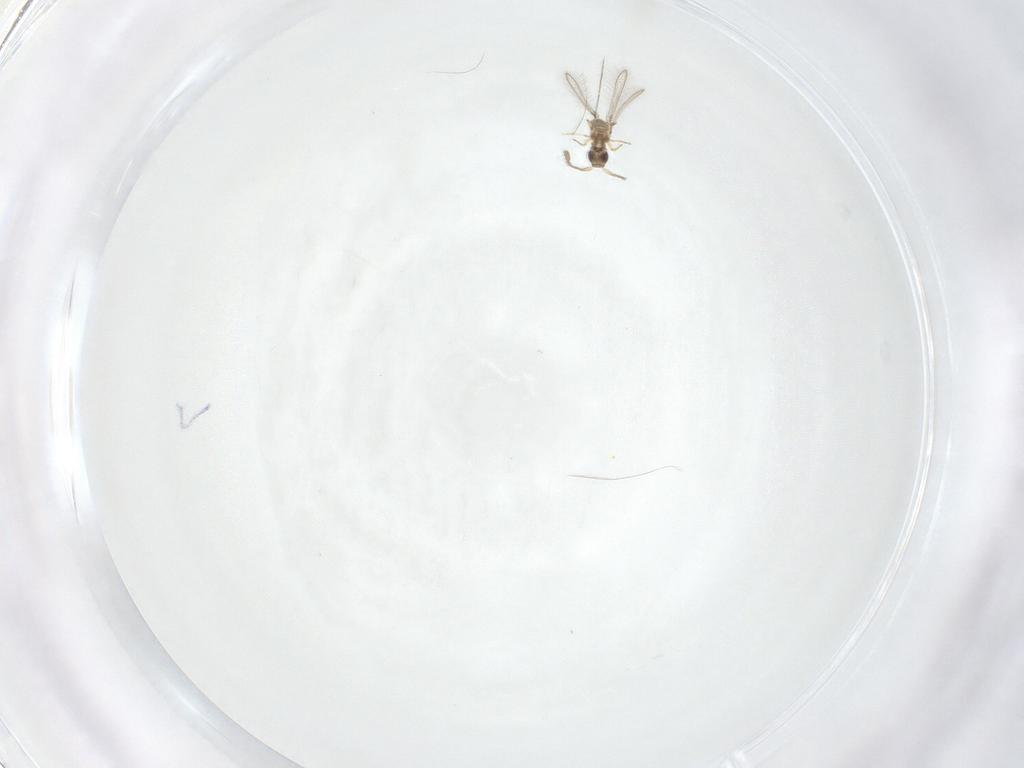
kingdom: Animalia
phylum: Arthropoda
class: Insecta
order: Hymenoptera
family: Mymaridae
